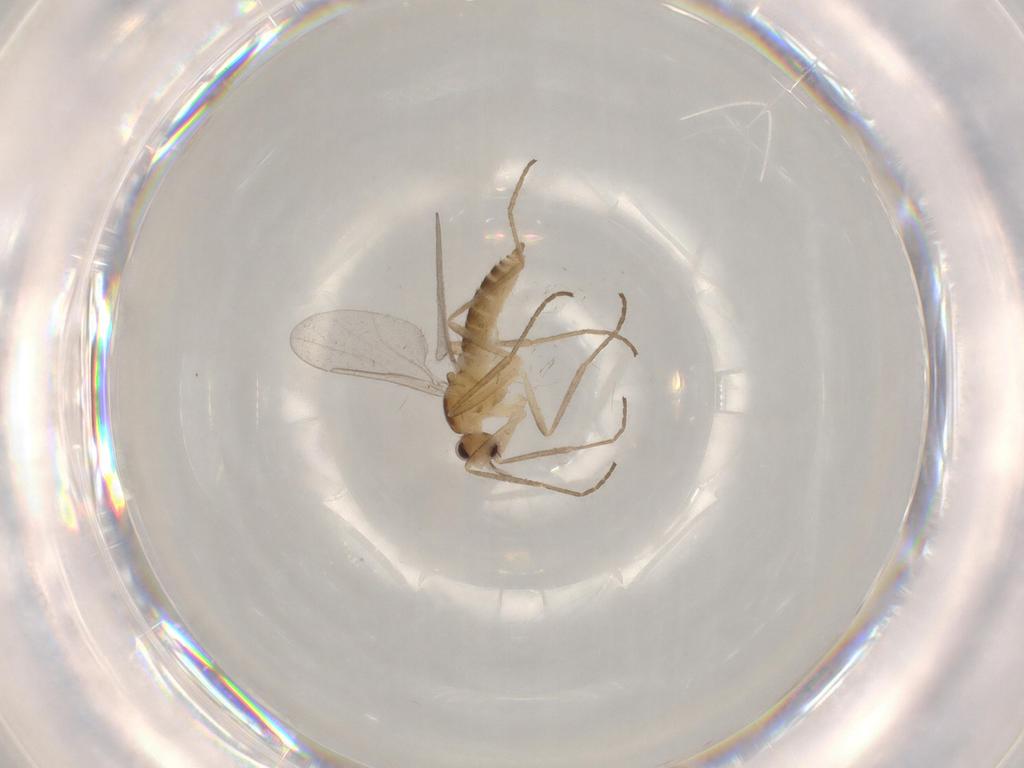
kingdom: Animalia
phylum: Arthropoda
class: Insecta
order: Diptera
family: Cecidomyiidae
